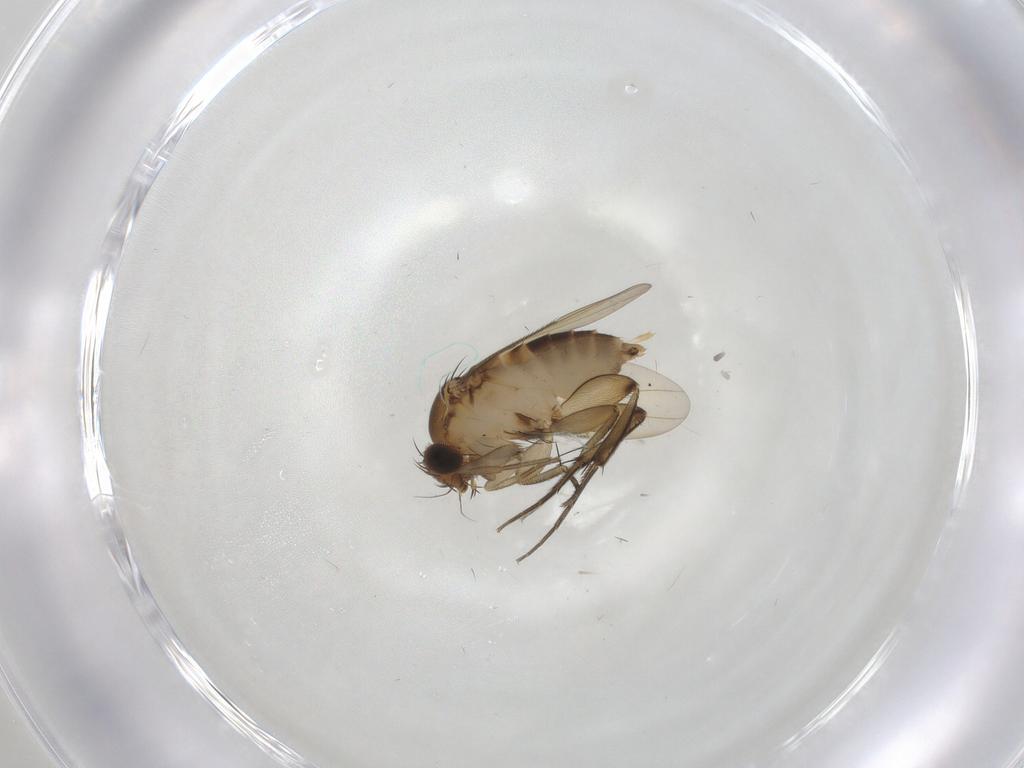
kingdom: Animalia
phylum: Arthropoda
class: Insecta
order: Diptera
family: Phoridae
